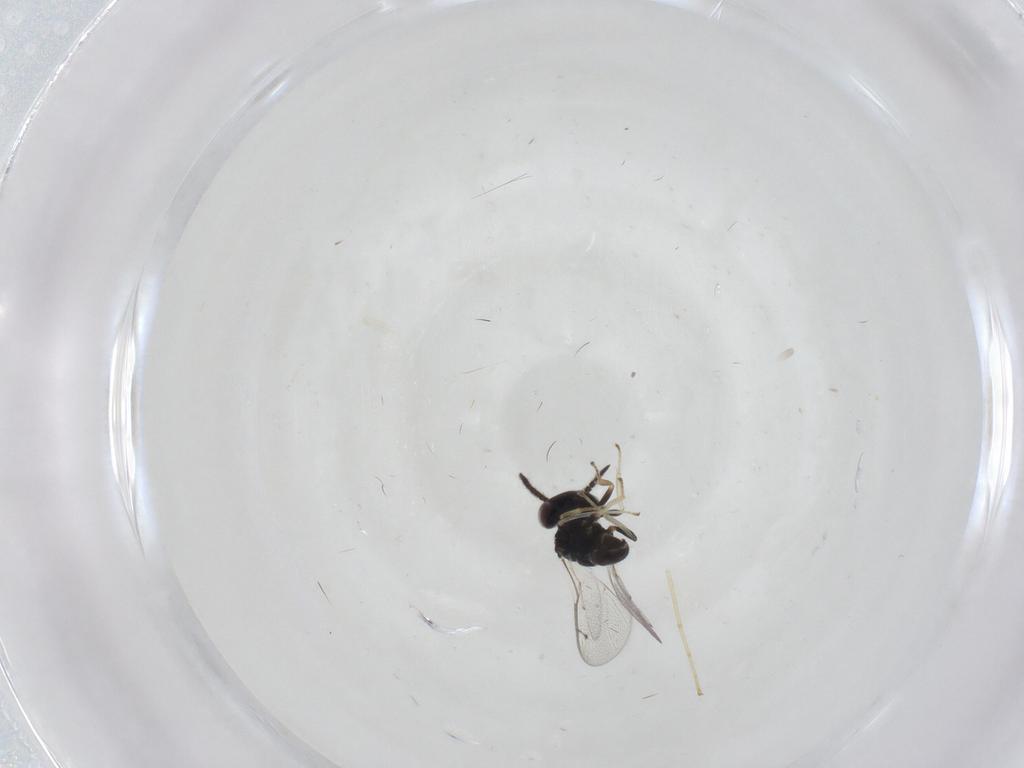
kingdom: Animalia
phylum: Arthropoda
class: Insecta
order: Hymenoptera
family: Pteromalidae
